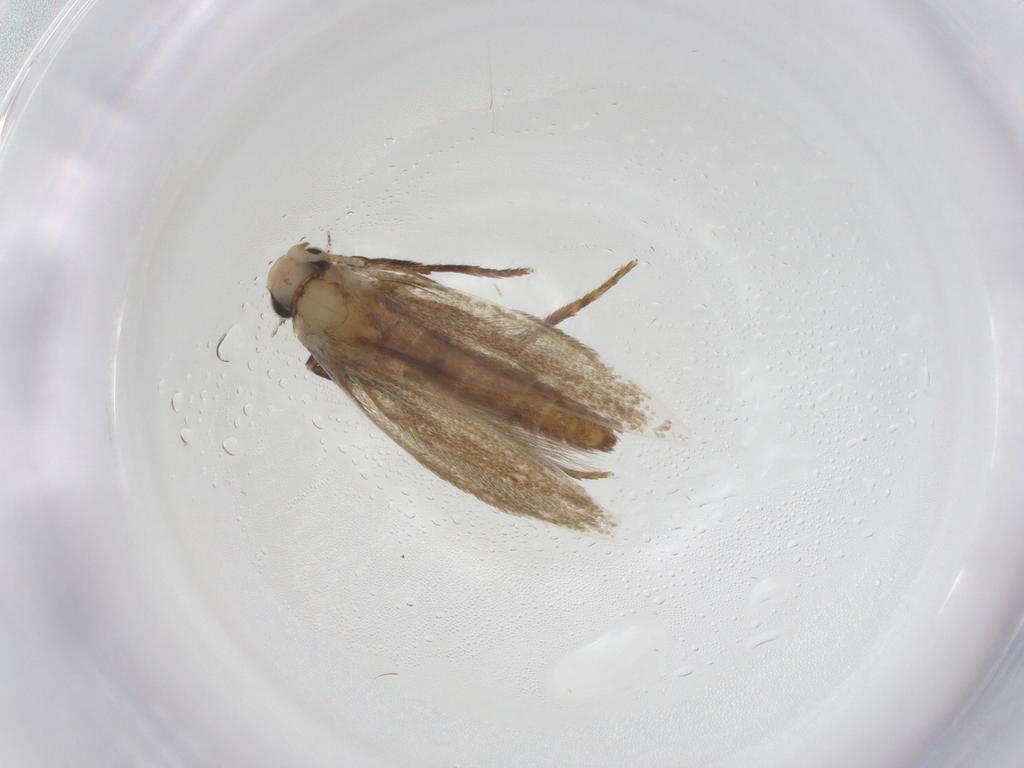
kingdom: Animalia
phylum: Arthropoda
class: Insecta
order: Lepidoptera
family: Tineidae
